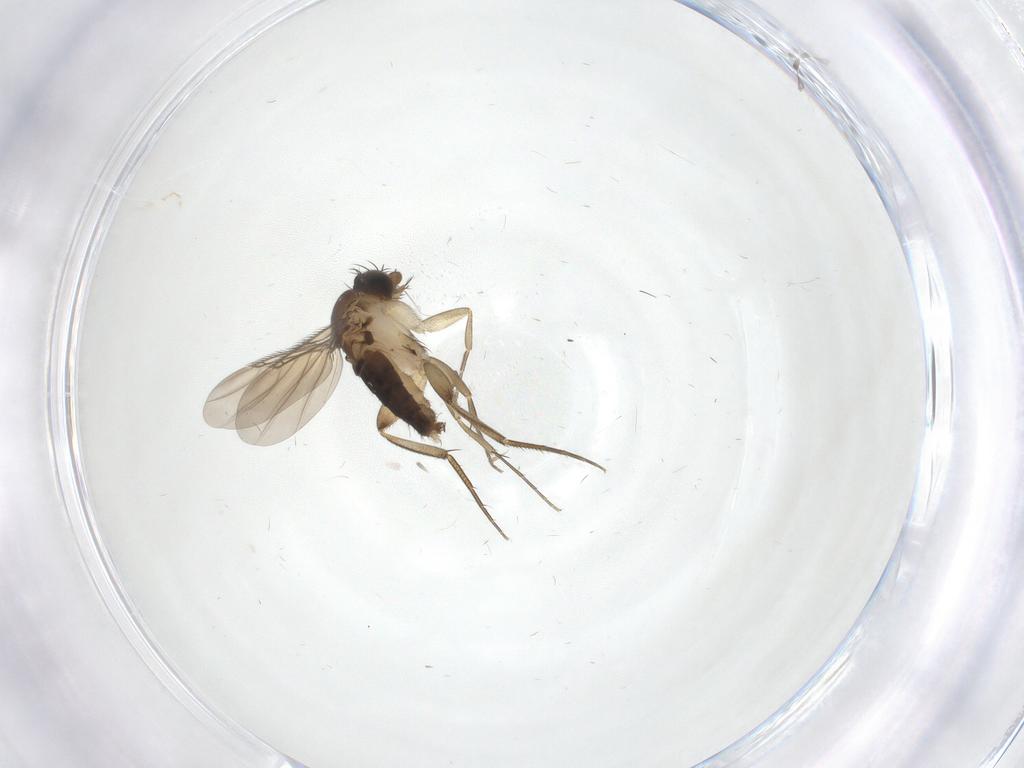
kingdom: Animalia
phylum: Arthropoda
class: Insecta
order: Diptera
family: Phoridae
